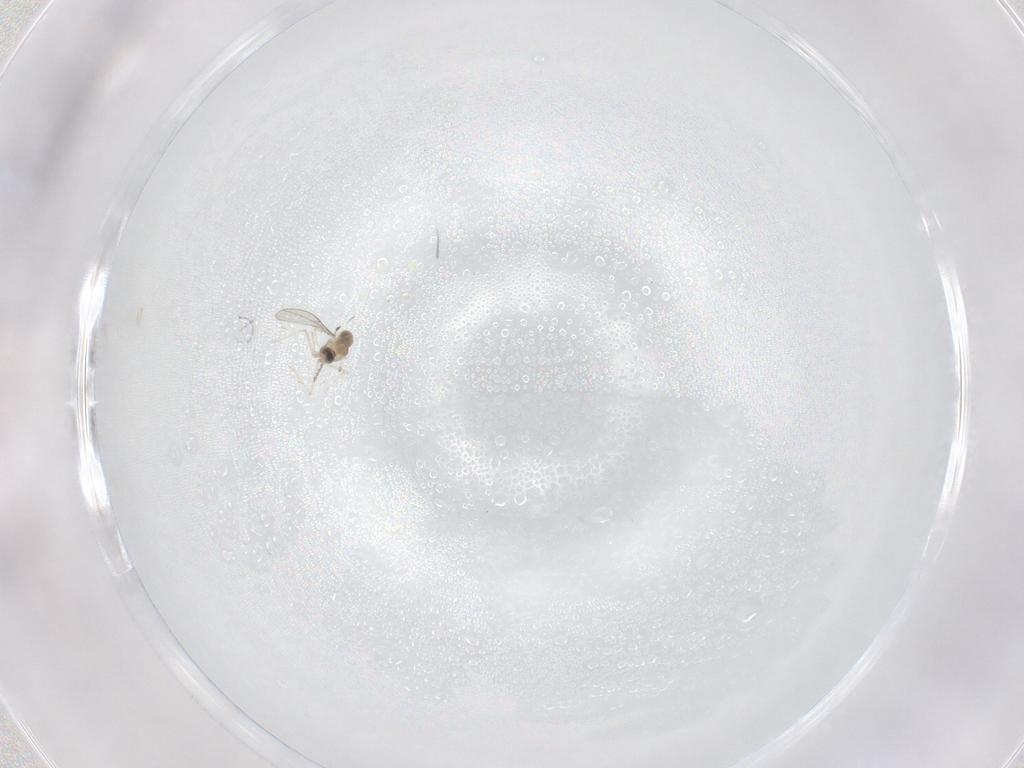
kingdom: Animalia
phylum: Arthropoda
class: Insecta
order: Diptera
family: Cecidomyiidae
